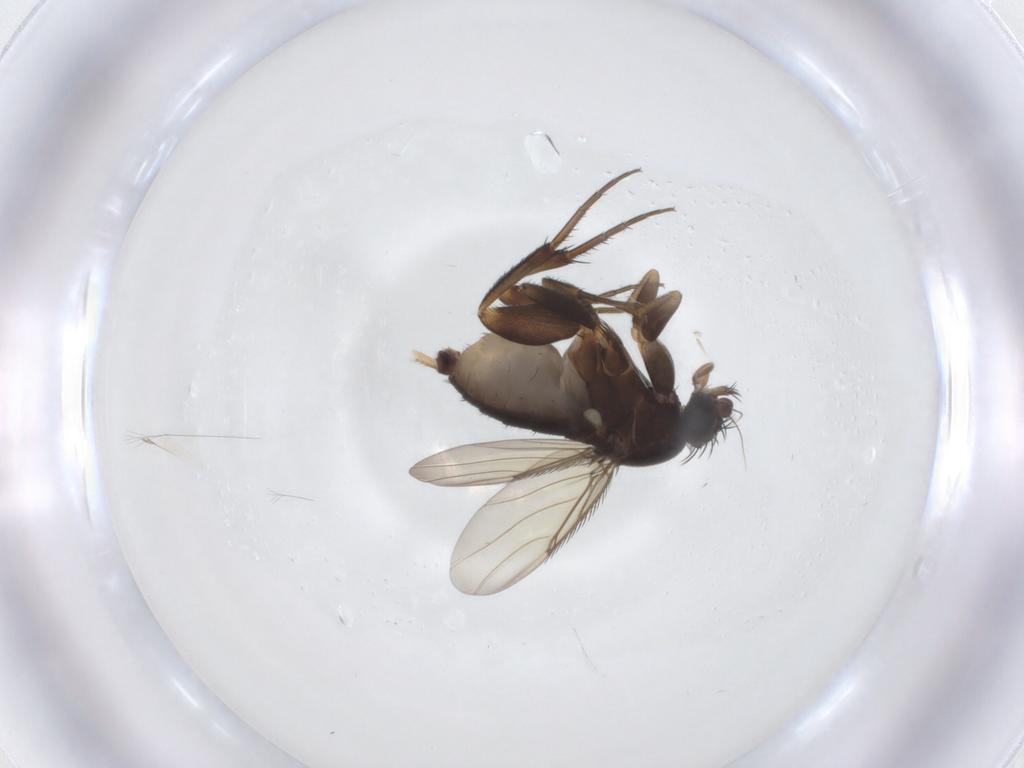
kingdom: Animalia
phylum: Arthropoda
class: Insecta
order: Diptera
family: Phoridae
